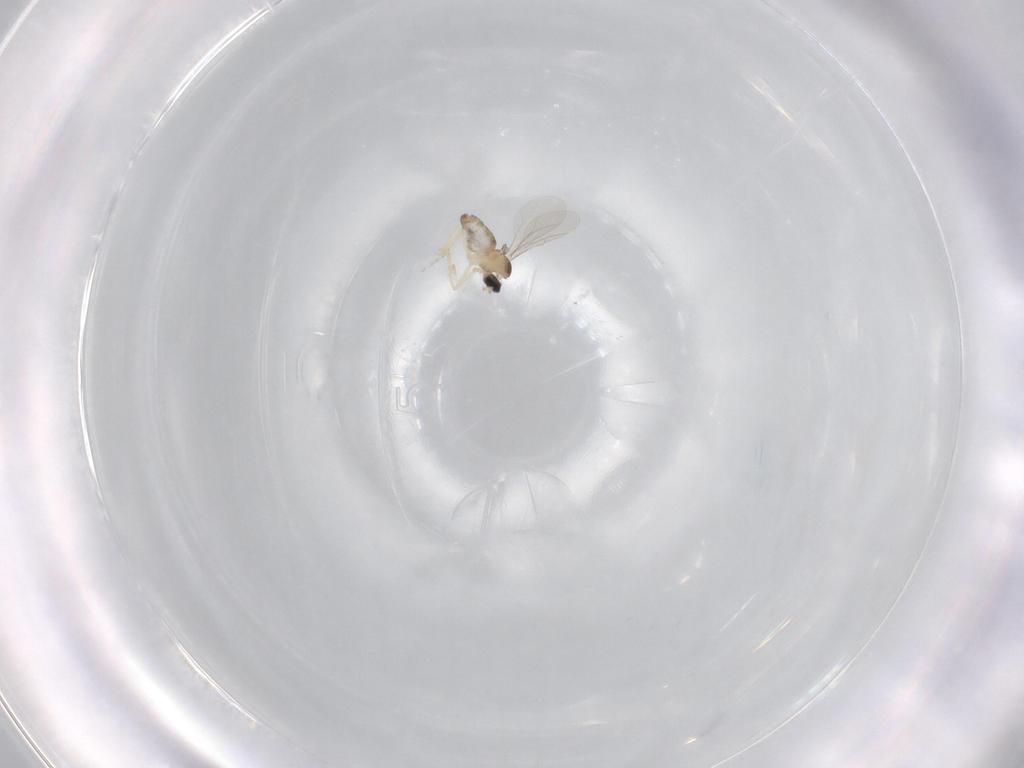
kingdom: Animalia
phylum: Arthropoda
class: Insecta
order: Diptera
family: Cecidomyiidae
